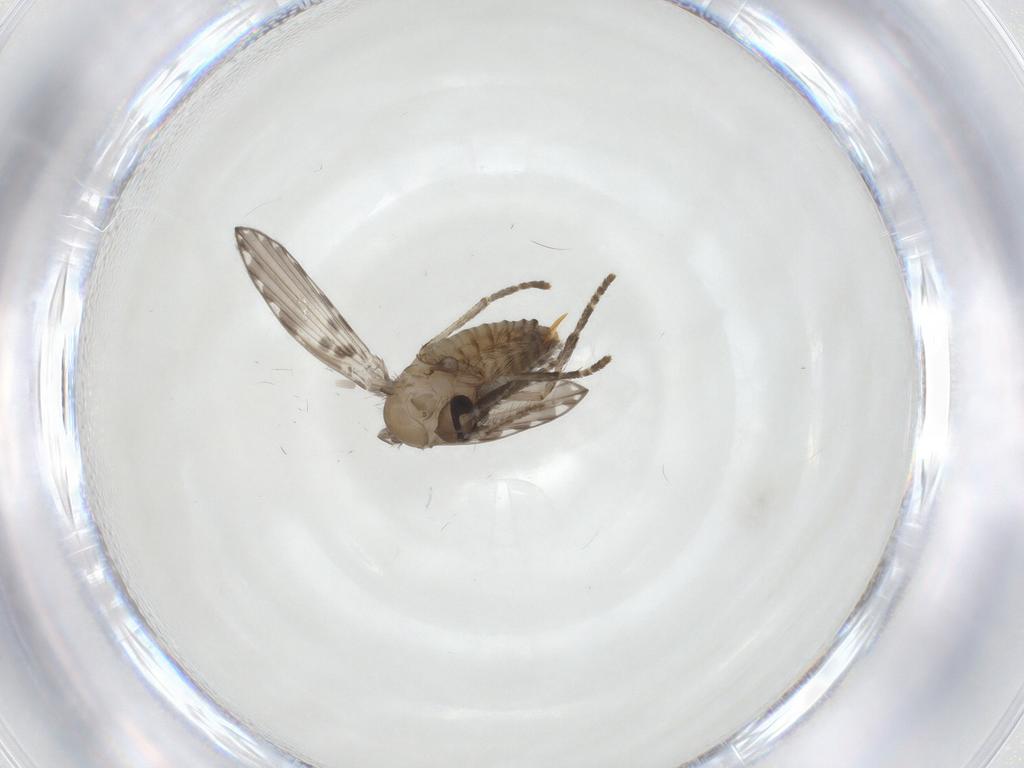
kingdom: Animalia
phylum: Arthropoda
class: Insecta
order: Diptera
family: Psychodidae
